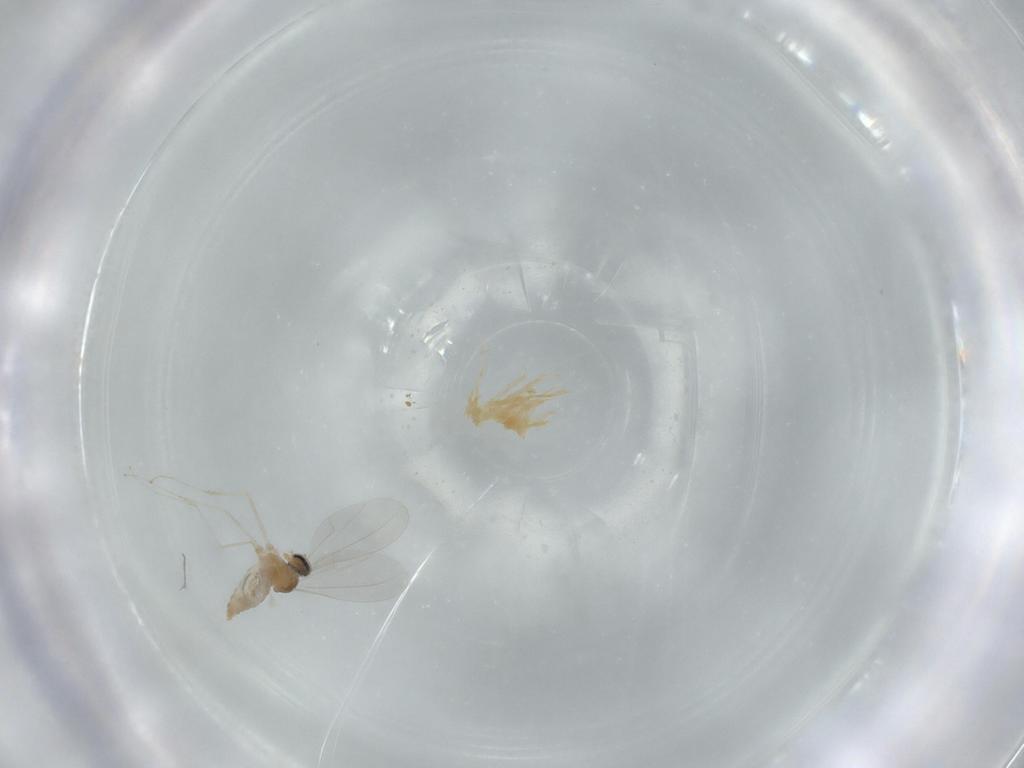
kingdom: Animalia
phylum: Arthropoda
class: Insecta
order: Diptera
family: Cecidomyiidae
